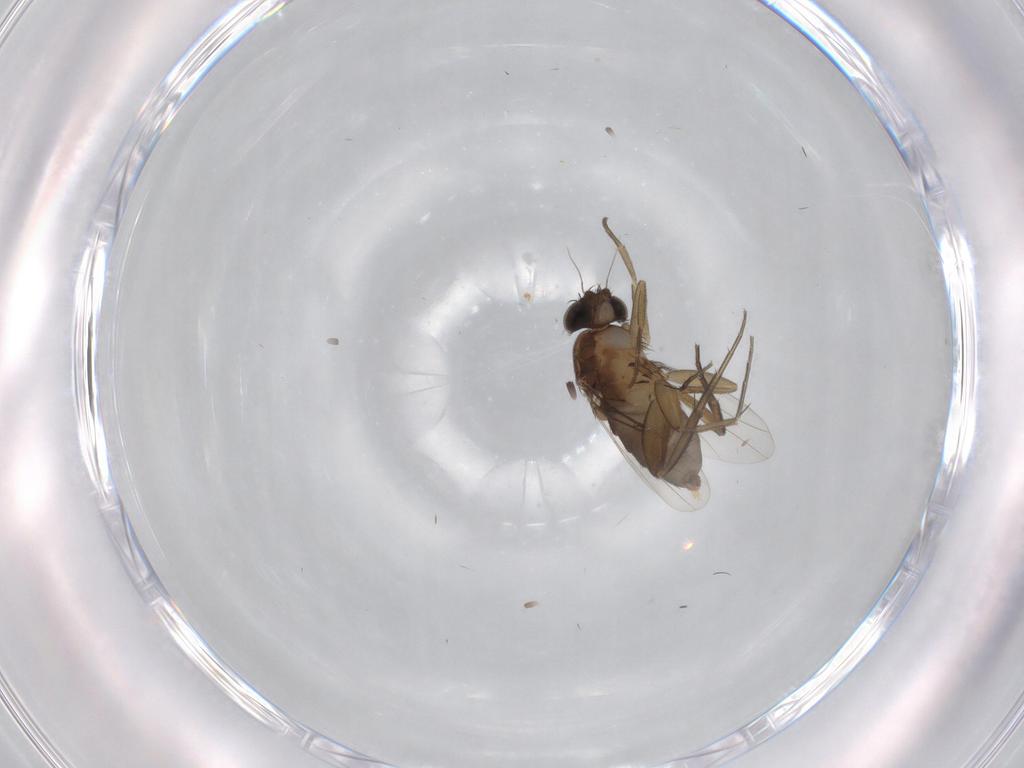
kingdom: Animalia
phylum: Arthropoda
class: Insecta
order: Diptera
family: Phoridae
